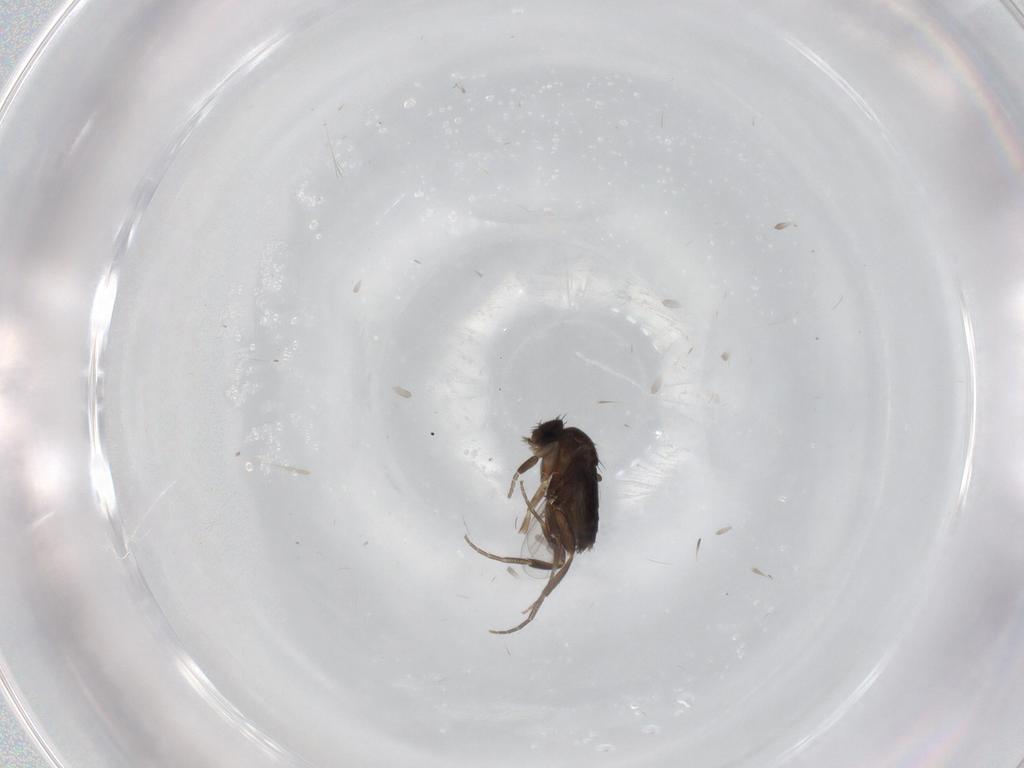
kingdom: Animalia
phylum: Arthropoda
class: Insecta
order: Diptera
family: Phoridae
